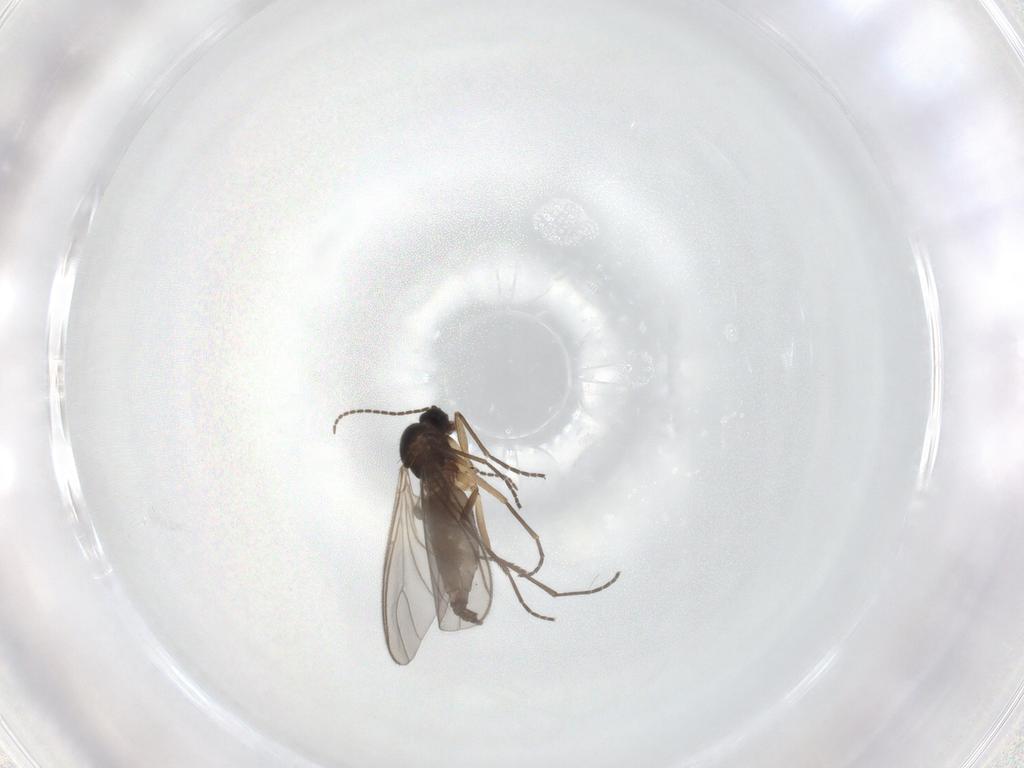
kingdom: Animalia
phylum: Arthropoda
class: Insecta
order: Diptera
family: Sciaridae
